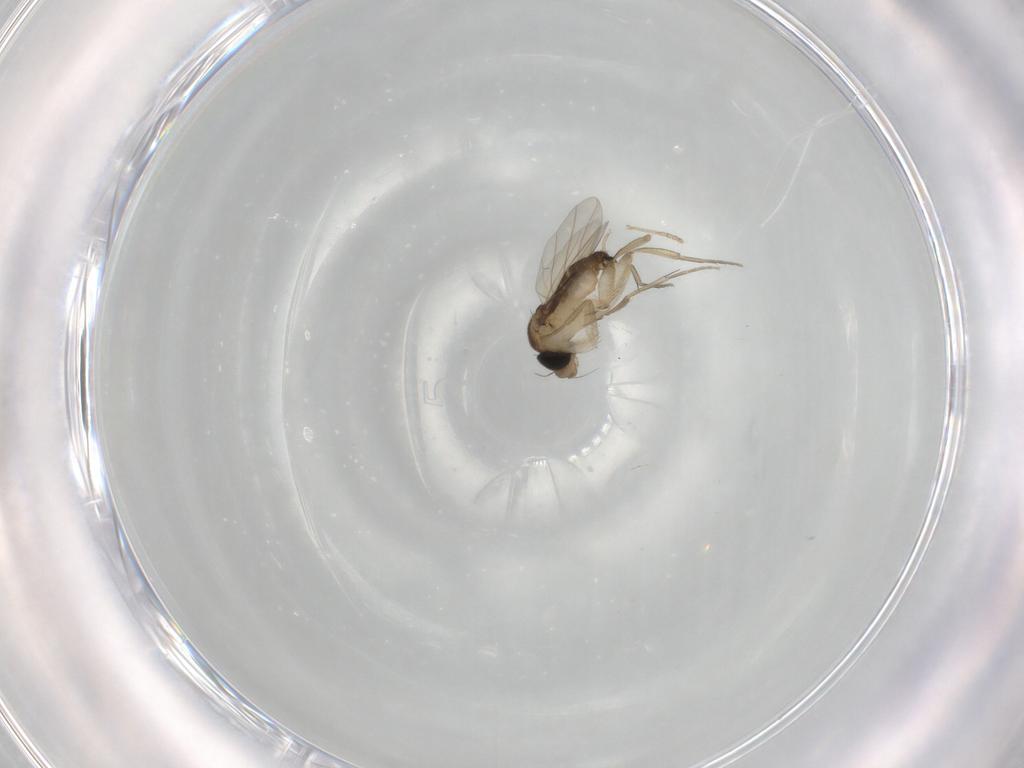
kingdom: Animalia
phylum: Arthropoda
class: Insecta
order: Diptera
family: Phoridae
